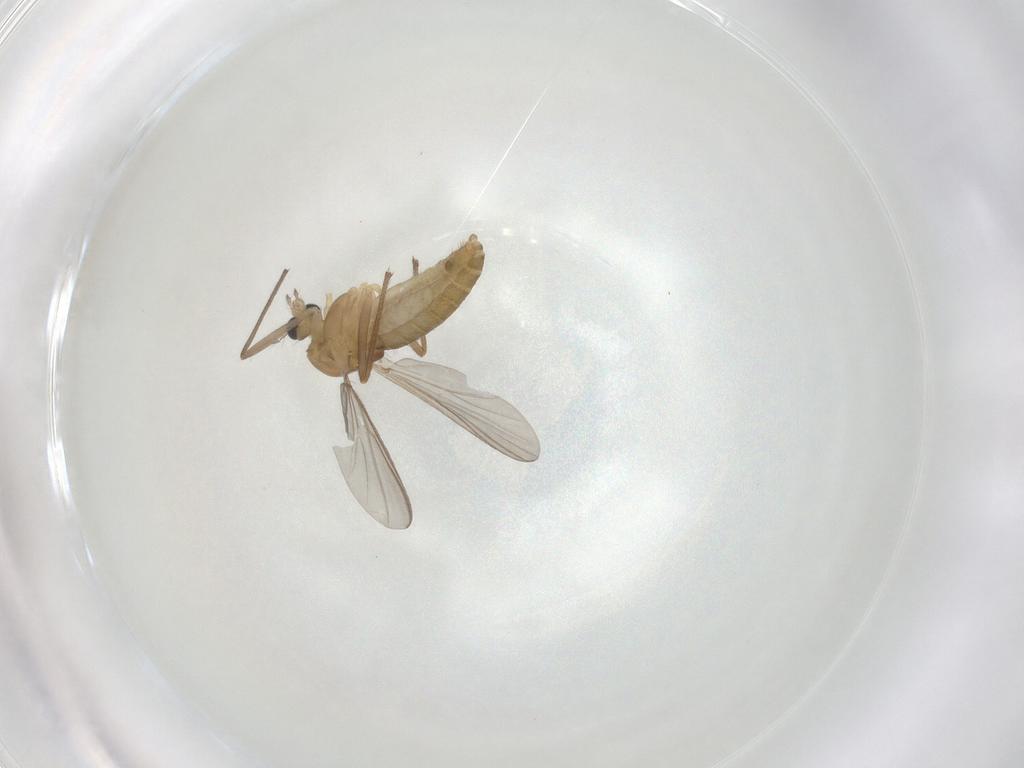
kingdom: Animalia
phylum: Arthropoda
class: Insecta
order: Diptera
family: Chironomidae
